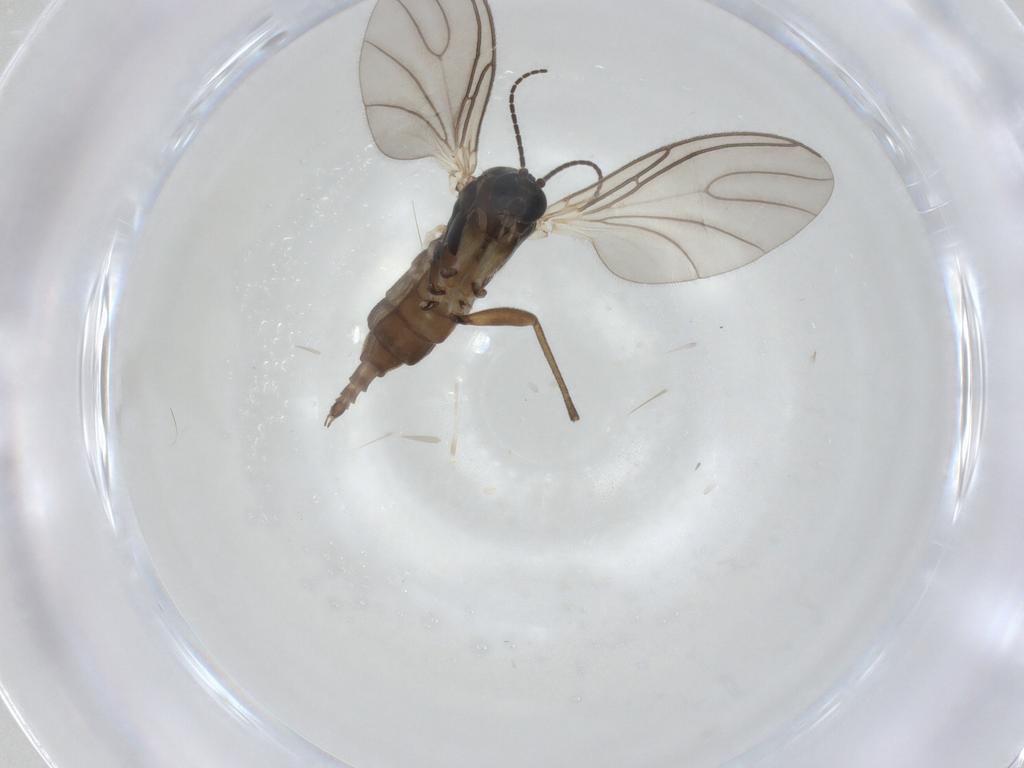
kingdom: Animalia
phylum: Arthropoda
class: Insecta
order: Diptera
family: Sciaridae
